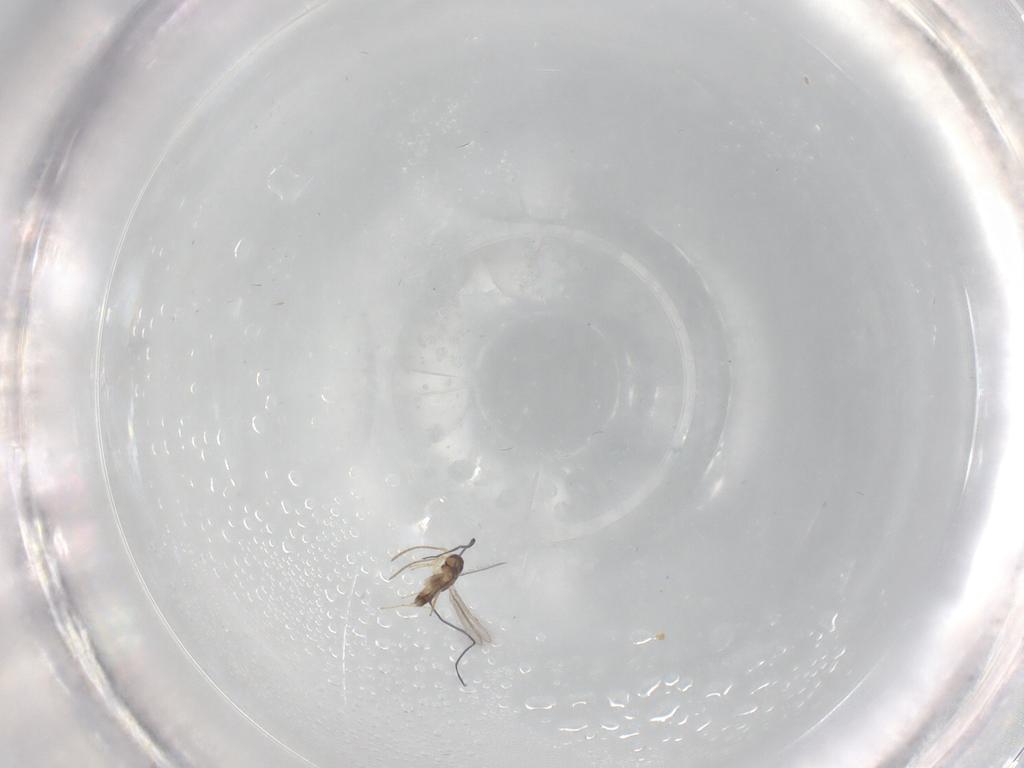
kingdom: Animalia
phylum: Arthropoda
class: Insecta
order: Hymenoptera
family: Mymaridae
